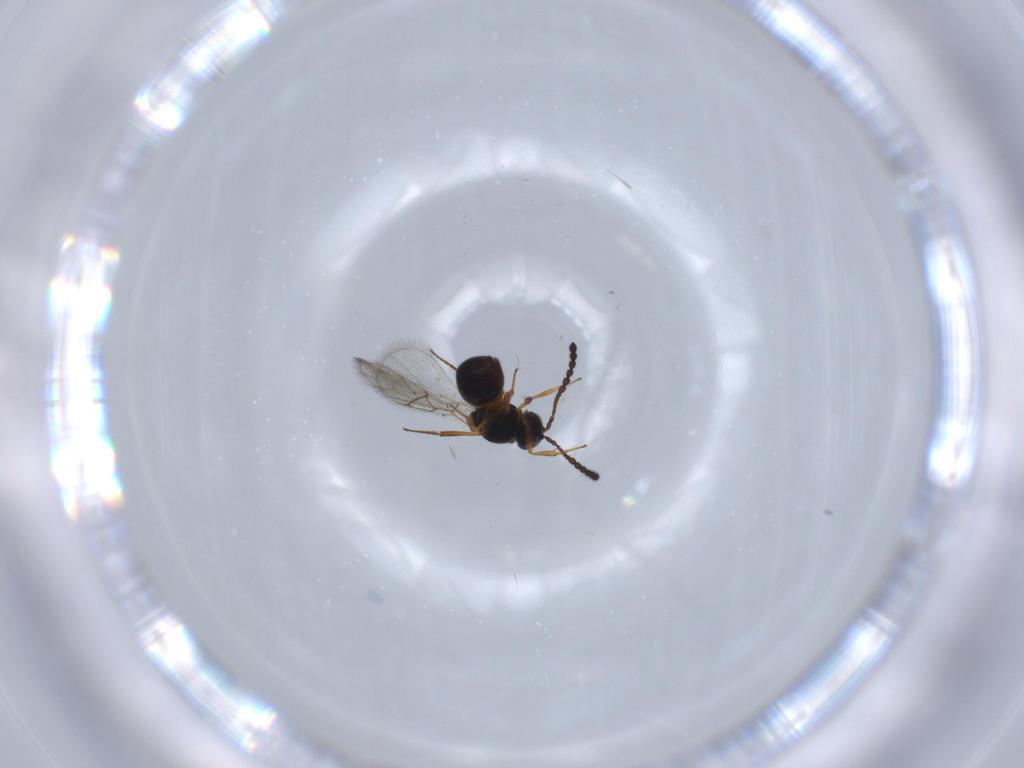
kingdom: Animalia
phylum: Arthropoda
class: Insecta
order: Hymenoptera
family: Figitidae
